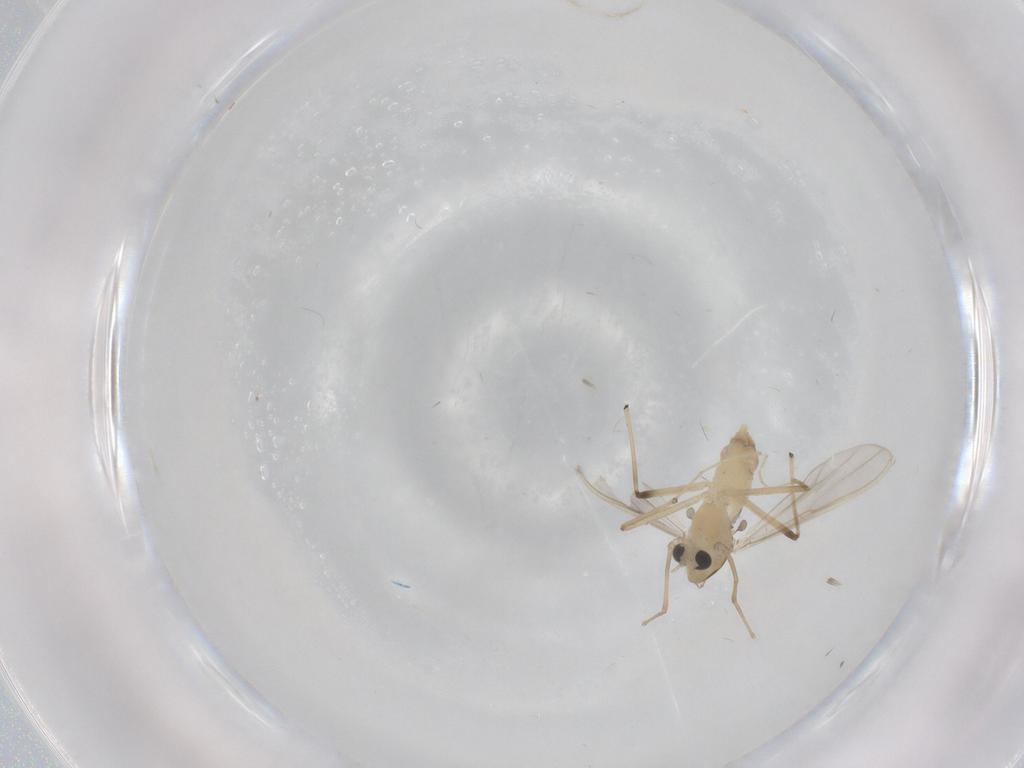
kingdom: Animalia
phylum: Arthropoda
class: Insecta
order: Diptera
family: Chironomidae
